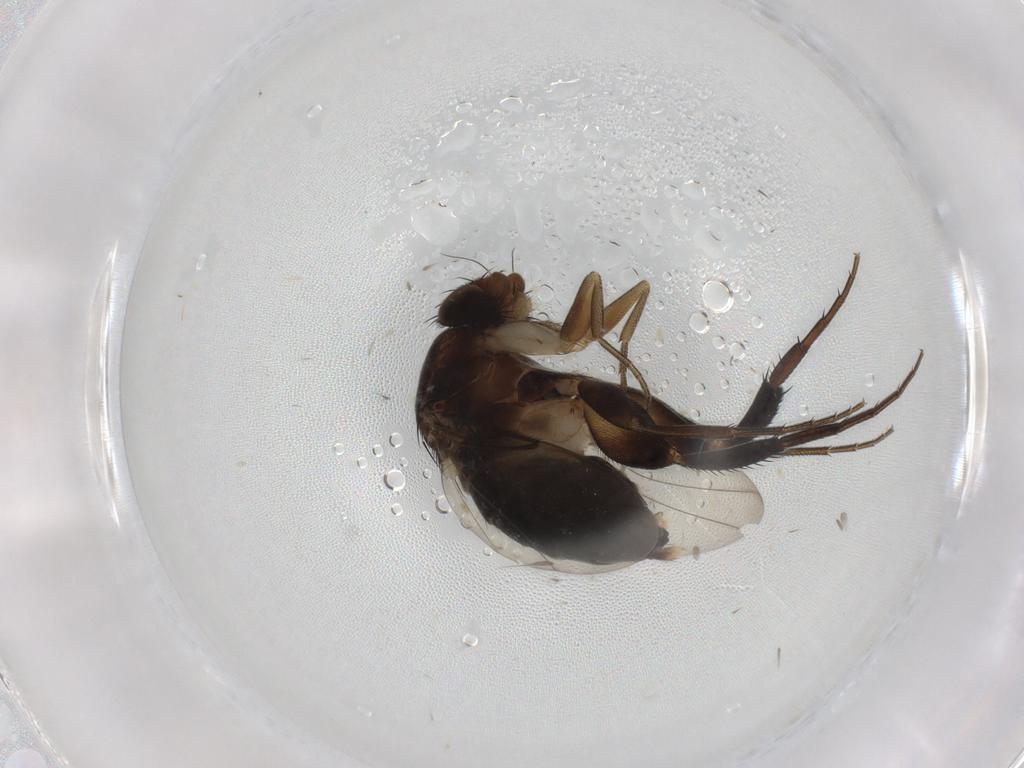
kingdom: Animalia
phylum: Arthropoda
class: Insecta
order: Diptera
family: Phoridae
